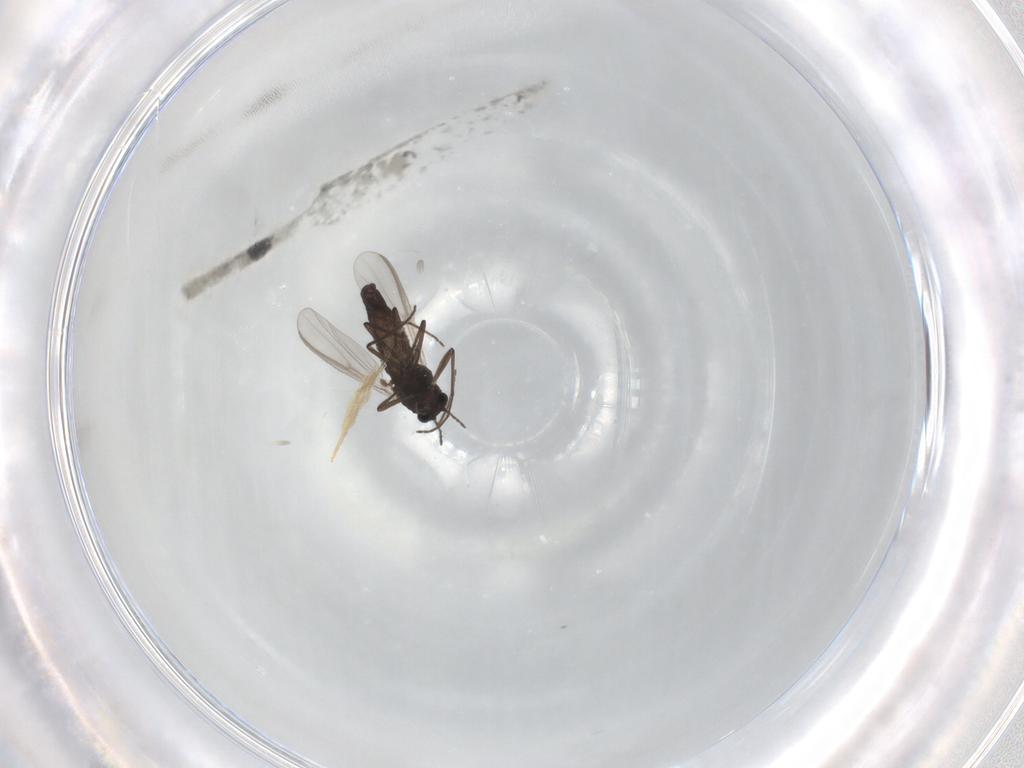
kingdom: Animalia
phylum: Arthropoda
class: Insecta
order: Diptera
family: Chironomidae
